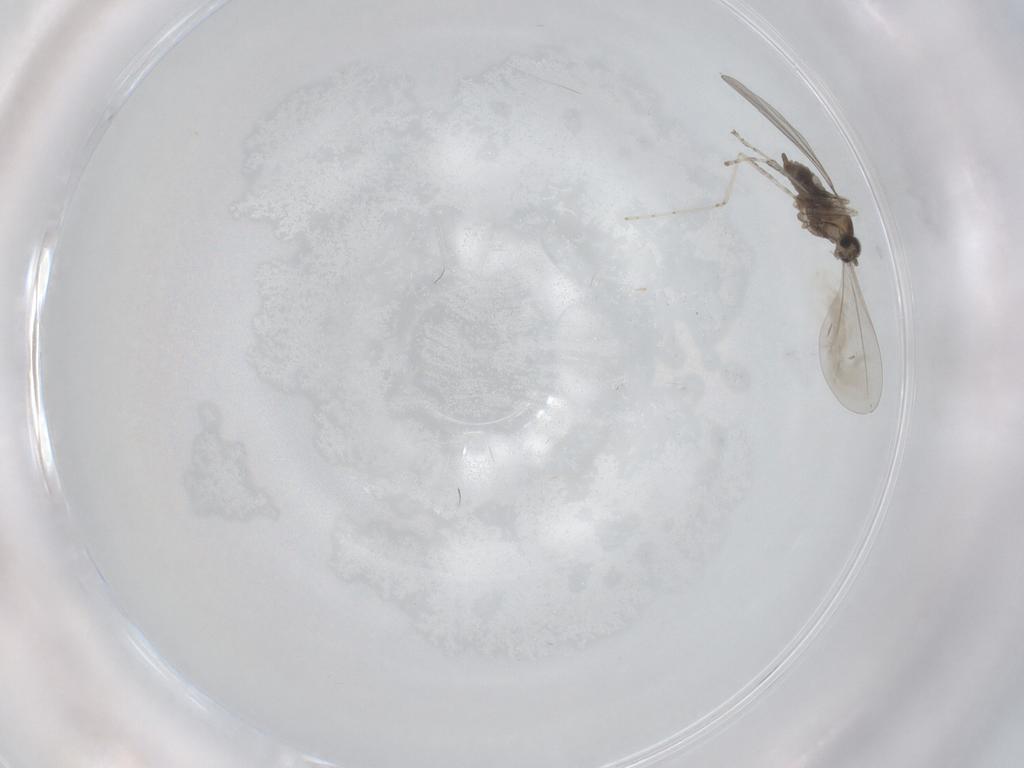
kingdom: Animalia
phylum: Arthropoda
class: Insecta
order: Diptera
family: Cecidomyiidae
